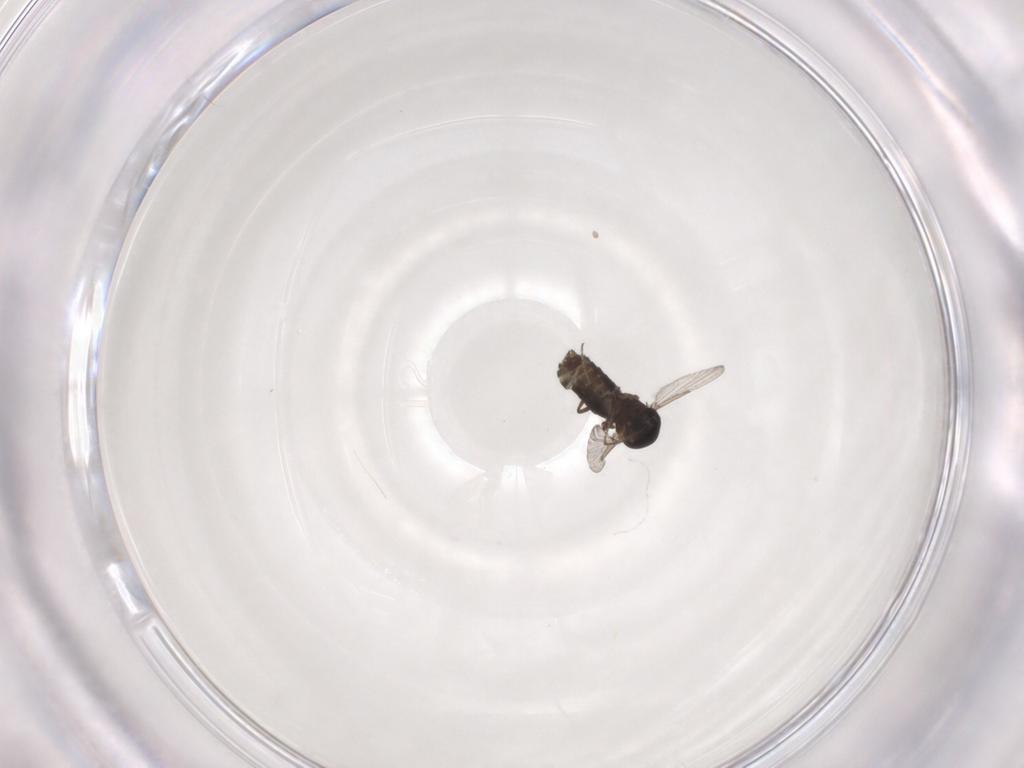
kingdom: Animalia
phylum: Arthropoda
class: Insecta
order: Diptera
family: Ceratopogonidae
